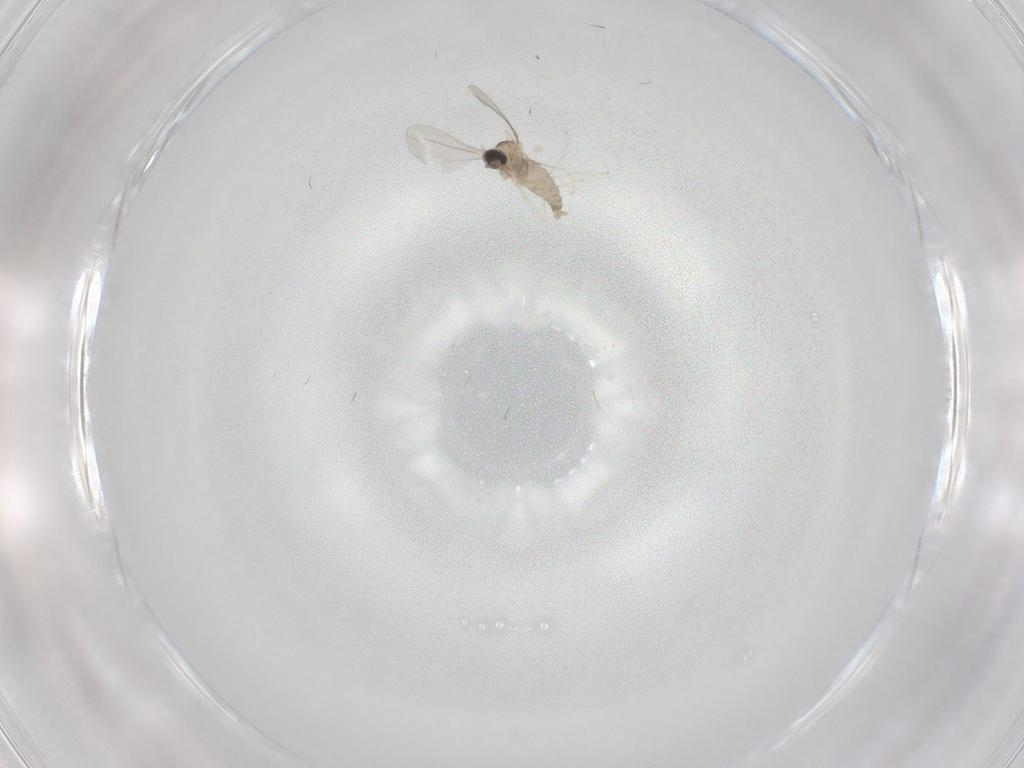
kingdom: Animalia
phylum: Arthropoda
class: Insecta
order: Diptera
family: Cecidomyiidae
